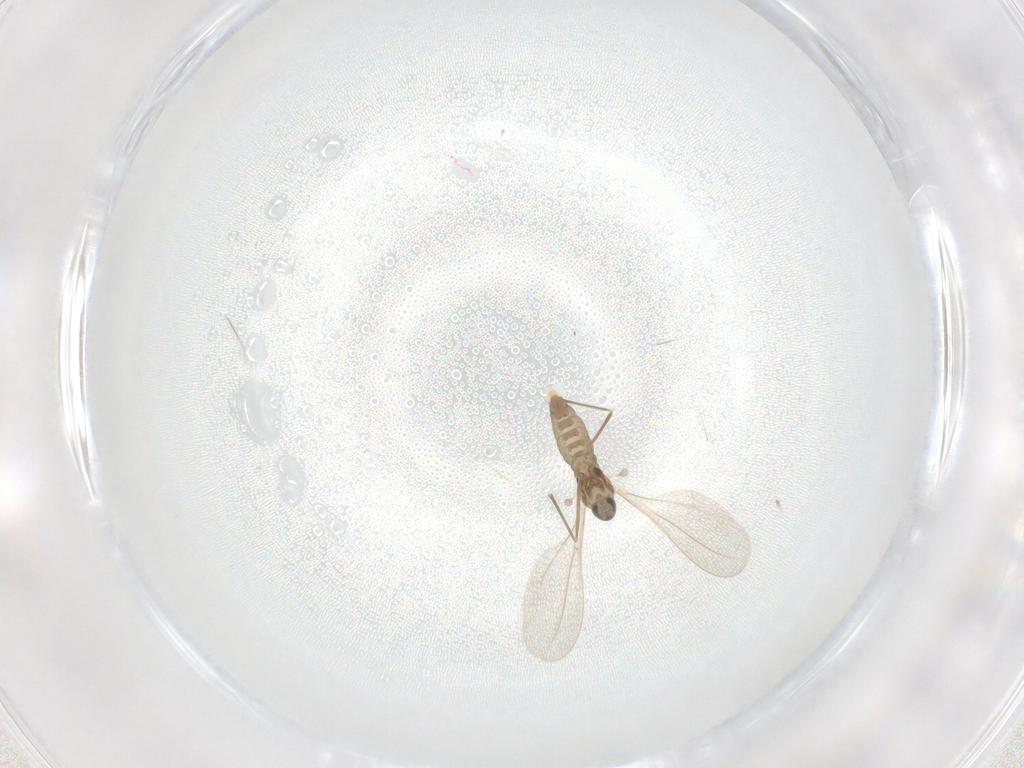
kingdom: Animalia
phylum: Arthropoda
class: Insecta
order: Diptera
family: Cecidomyiidae
